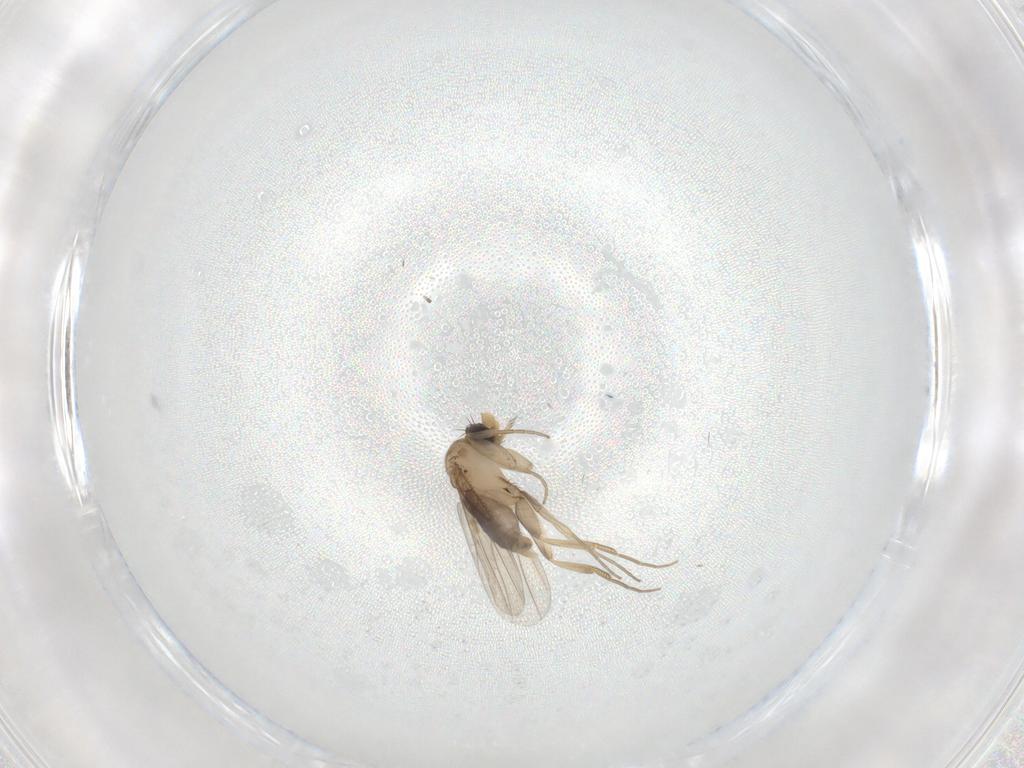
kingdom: Animalia
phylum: Arthropoda
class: Insecta
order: Diptera
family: Phoridae
